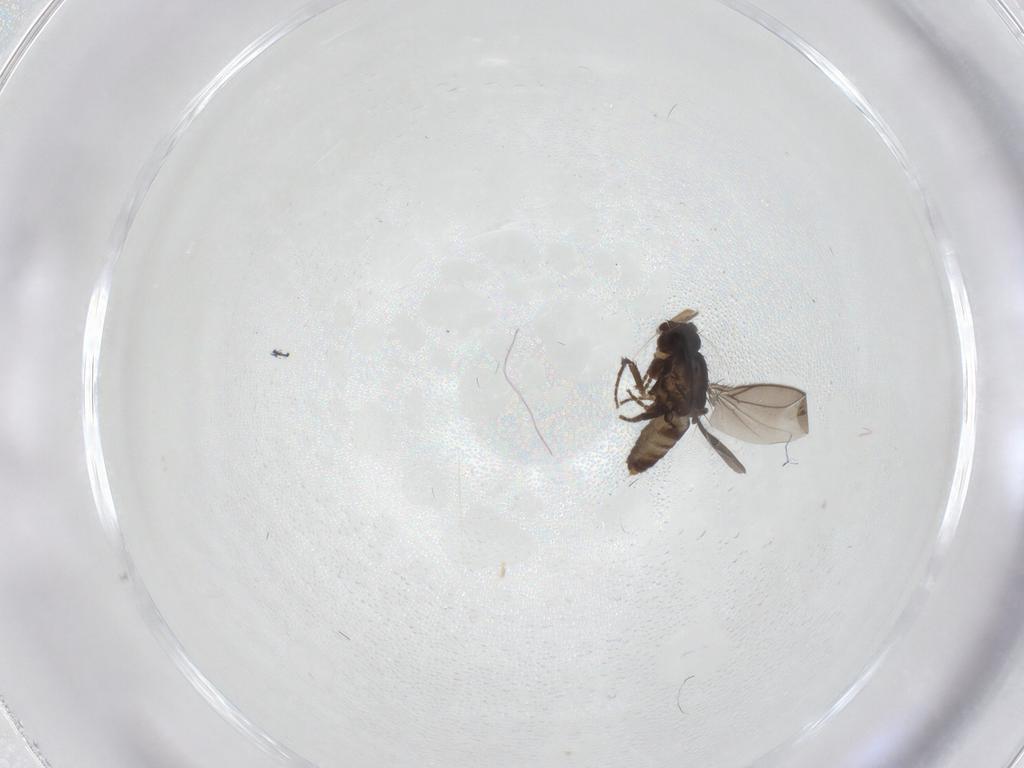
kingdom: Animalia
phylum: Arthropoda
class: Insecta
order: Diptera
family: Sphaeroceridae
